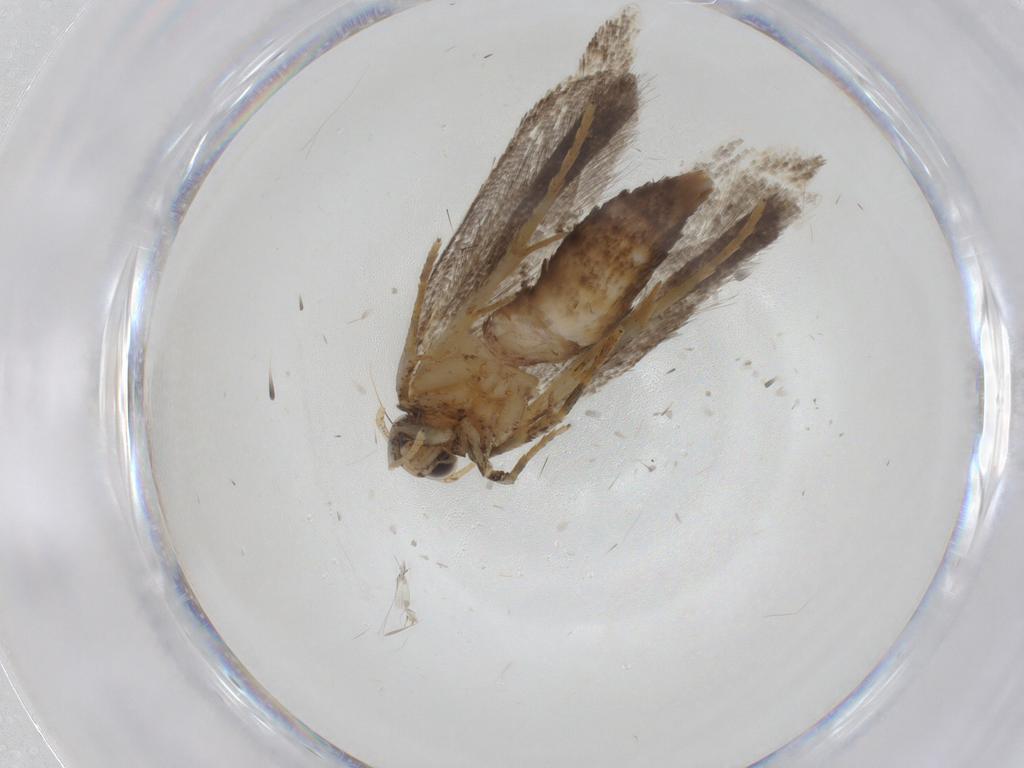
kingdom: Animalia
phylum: Arthropoda
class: Insecta
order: Lepidoptera
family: Gelechiidae
